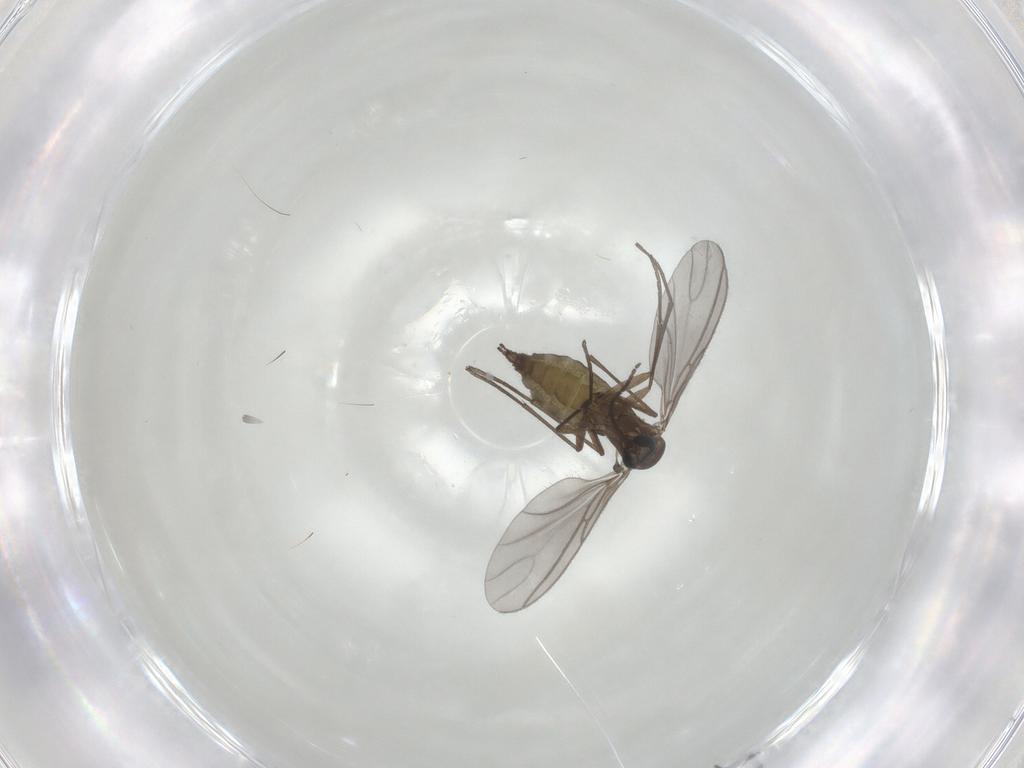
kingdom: Animalia
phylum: Arthropoda
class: Insecta
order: Diptera
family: Sciaridae
